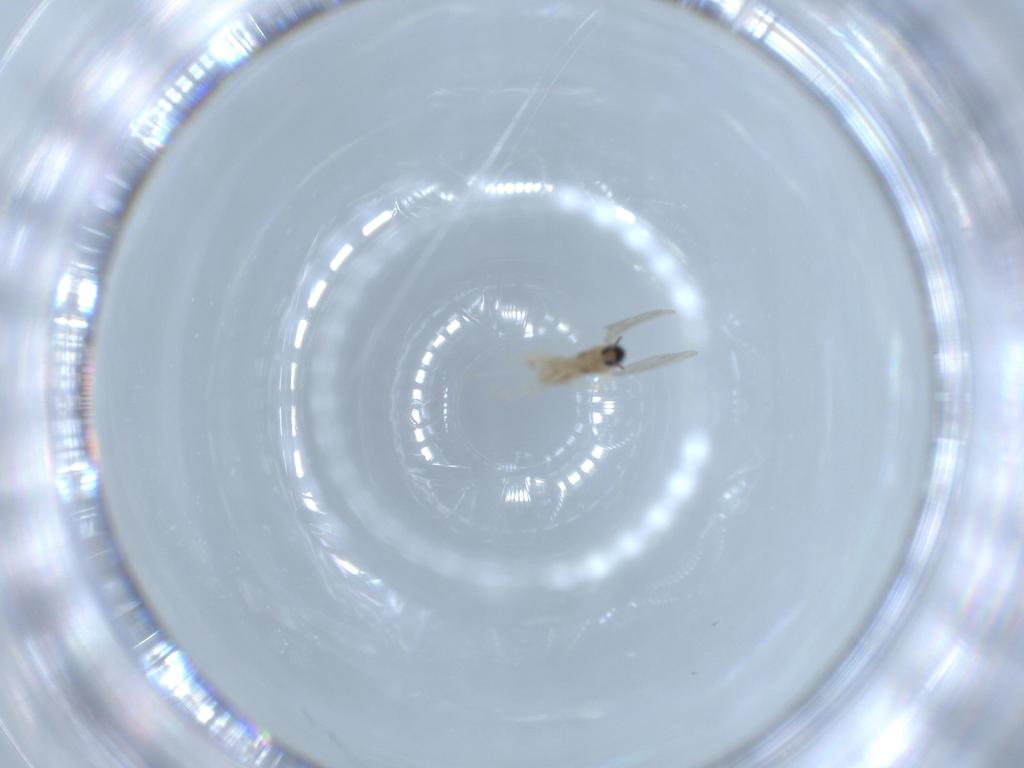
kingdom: Animalia
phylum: Arthropoda
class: Insecta
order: Diptera
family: Cecidomyiidae
